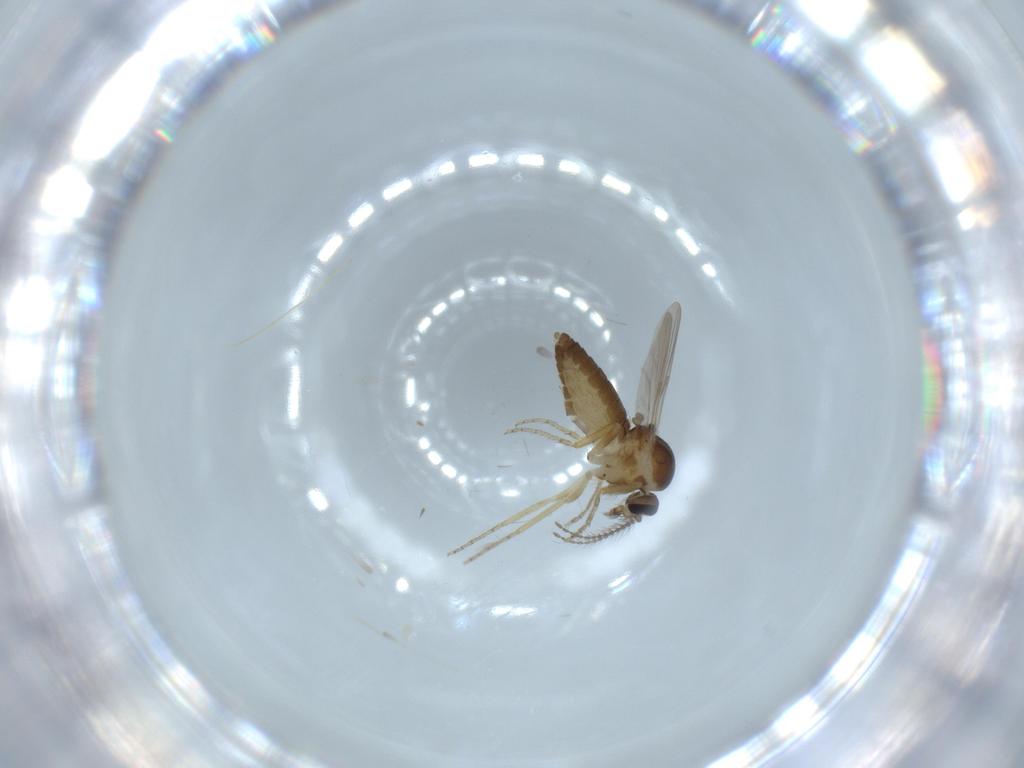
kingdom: Animalia
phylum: Arthropoda
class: Insecta
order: Diptera
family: Ceratopogonidae
